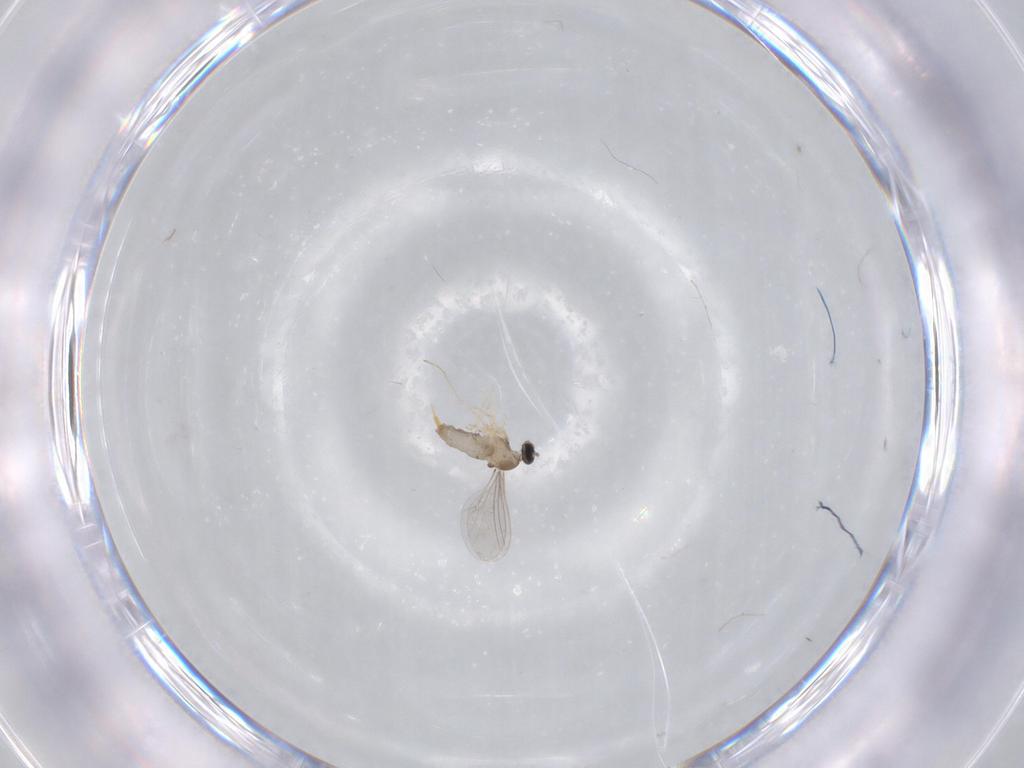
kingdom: Animalia
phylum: Arthropoda
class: Insecta
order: Diptera
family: Cecidomyiidae
